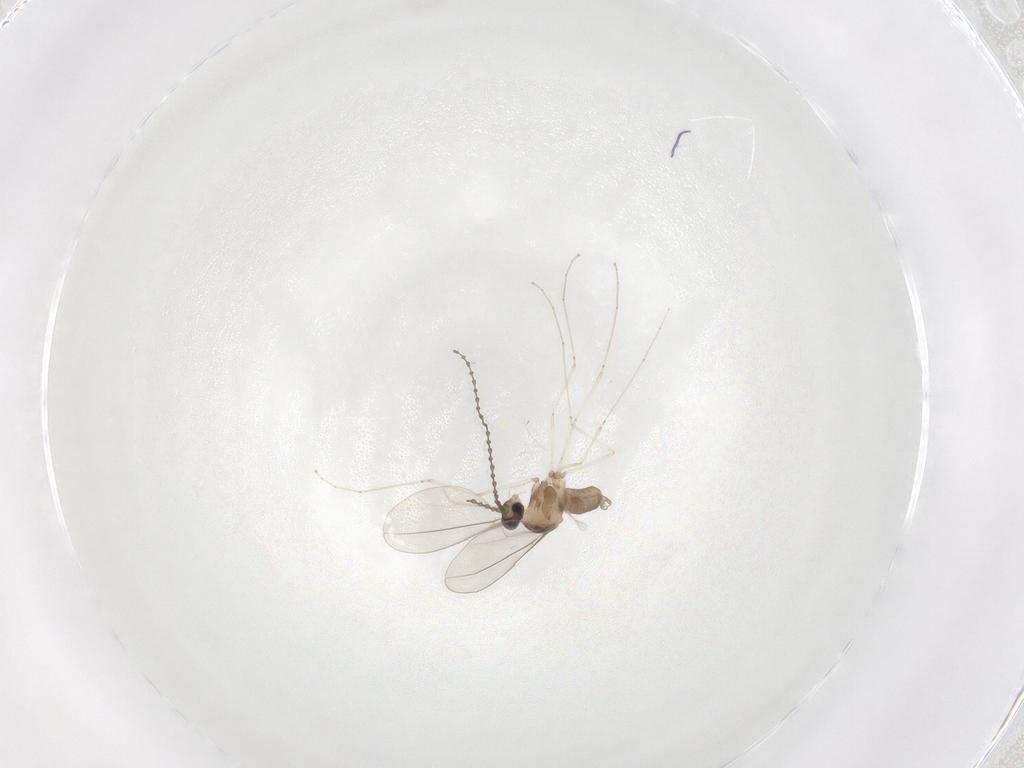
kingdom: Animalia
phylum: Arthropoda
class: Insecta
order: Diptera
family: Cecidomyiidae
